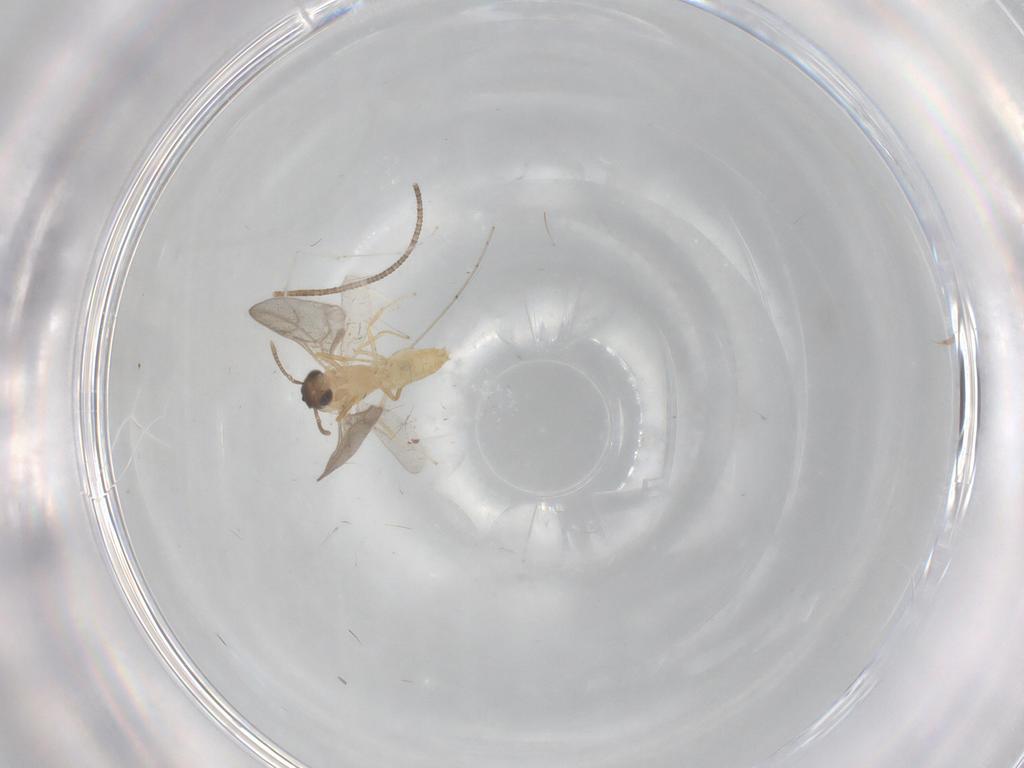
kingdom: Animalia
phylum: Arthropoda
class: Insecta
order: Hymenoptera
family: Formicidae
